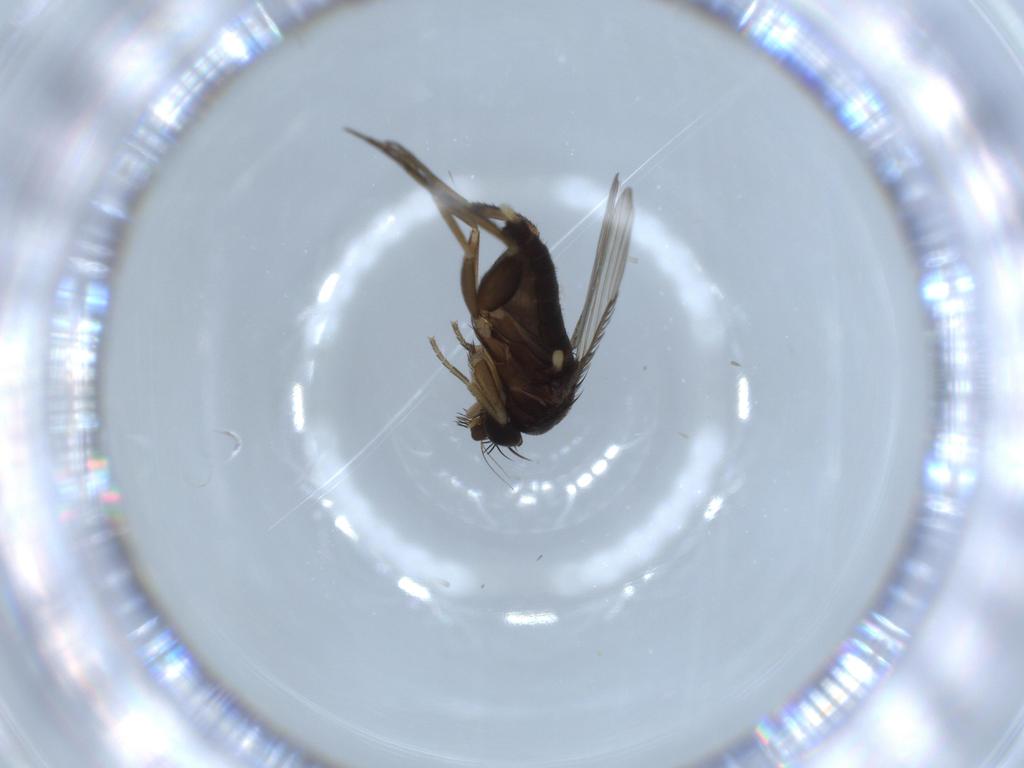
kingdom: Animalia
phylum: Arthropoda
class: Insecta
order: Diptera
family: Phoridae
